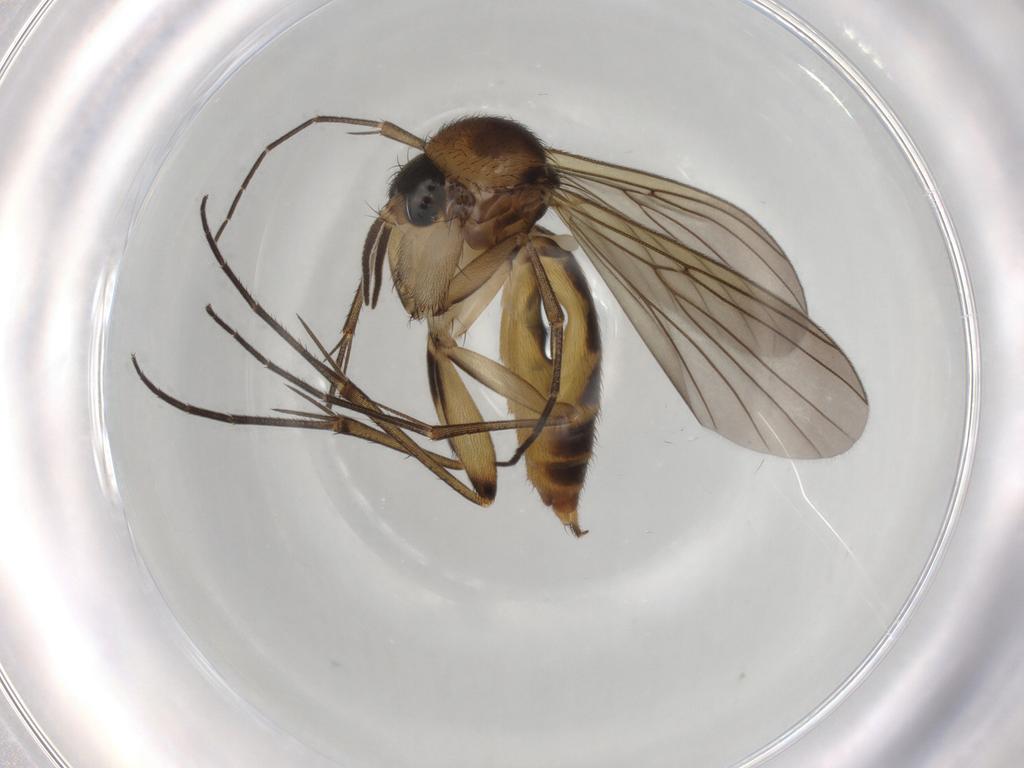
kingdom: Animalia
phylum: Arthropoda
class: Insecta
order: Diptera
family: Mycetophilidae
